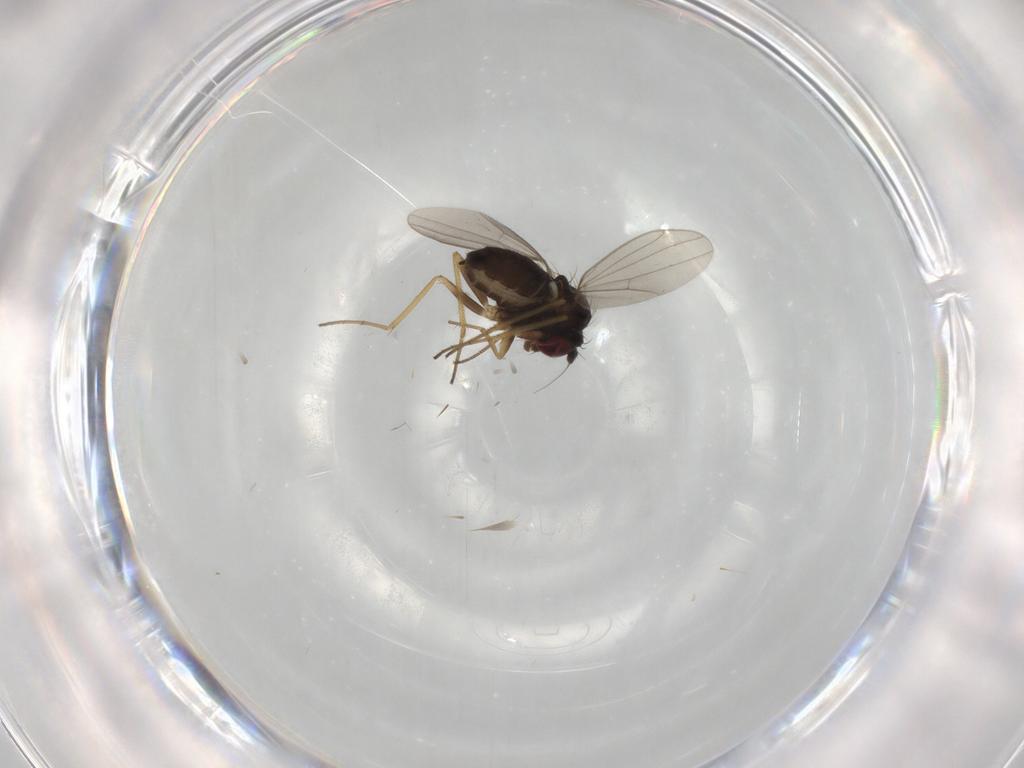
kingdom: Animalia
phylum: Arthropoda
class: Insecta
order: Diptera
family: Dolichopodidae
